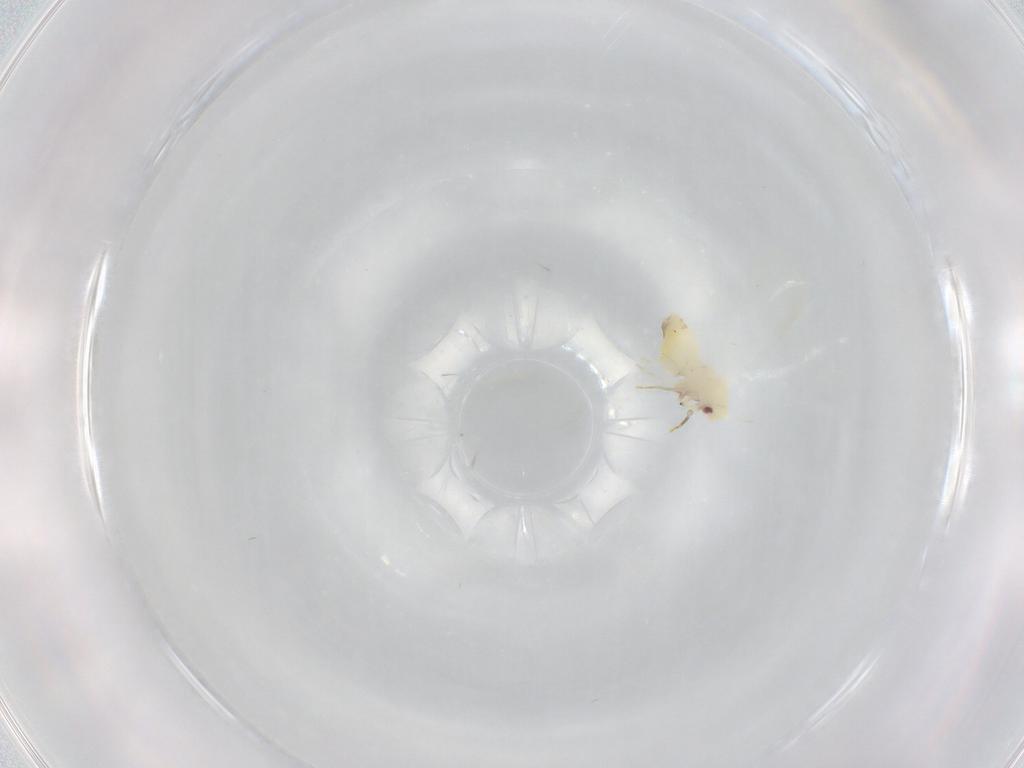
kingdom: Animalia
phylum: Arthropoda
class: Insecta
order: Hemiptera
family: Aleyrodidae
